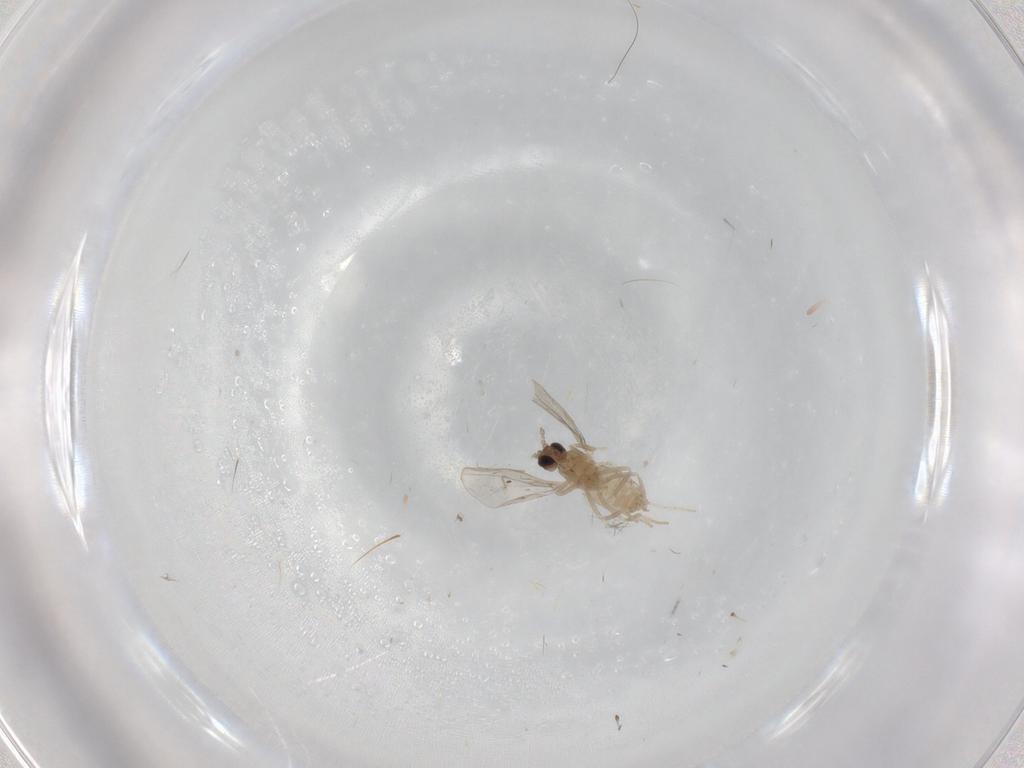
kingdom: Animalia
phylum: Arthropoda
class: Insecta
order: Diptera
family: Cecidomyiidae
